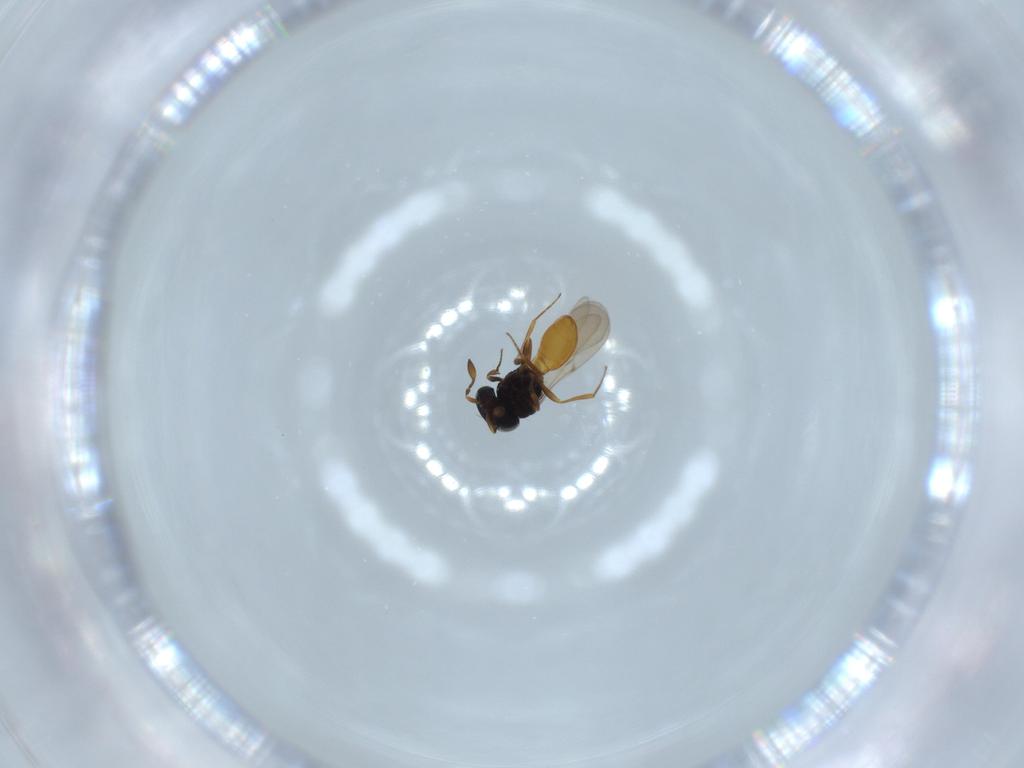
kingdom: Animalia
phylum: Arthropoda
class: Insecta
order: Hymenoptera
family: Scelionidae
